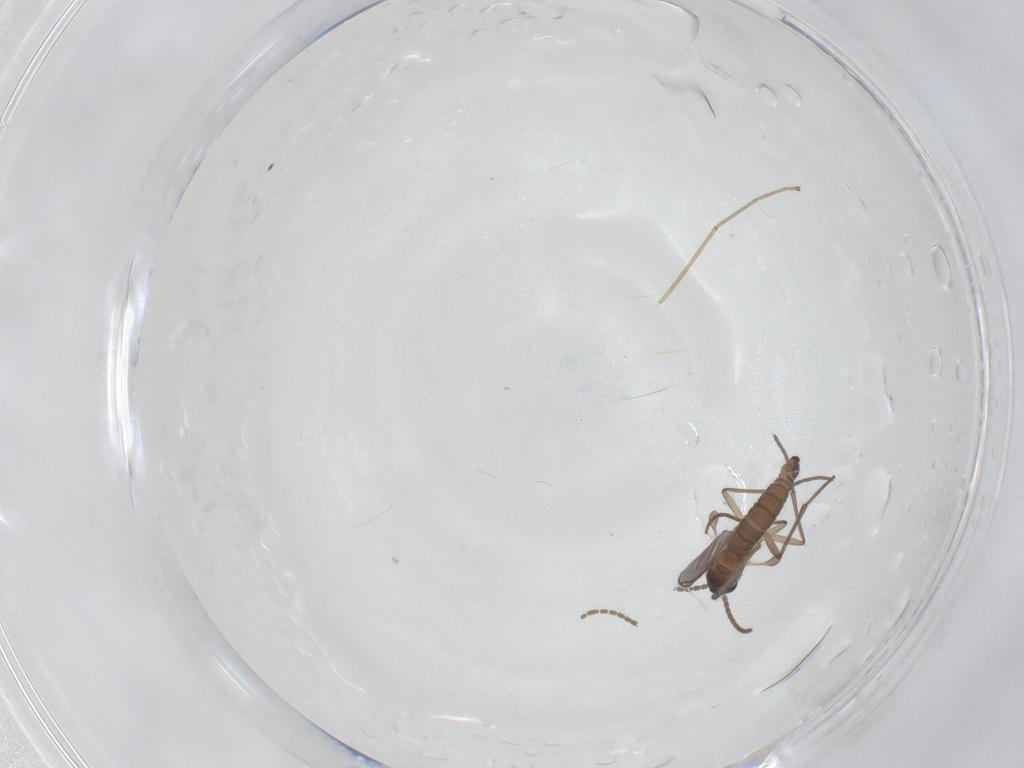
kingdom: Animalia
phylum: Arthropoda
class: Insecta
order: Diptera
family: Sciaridae
